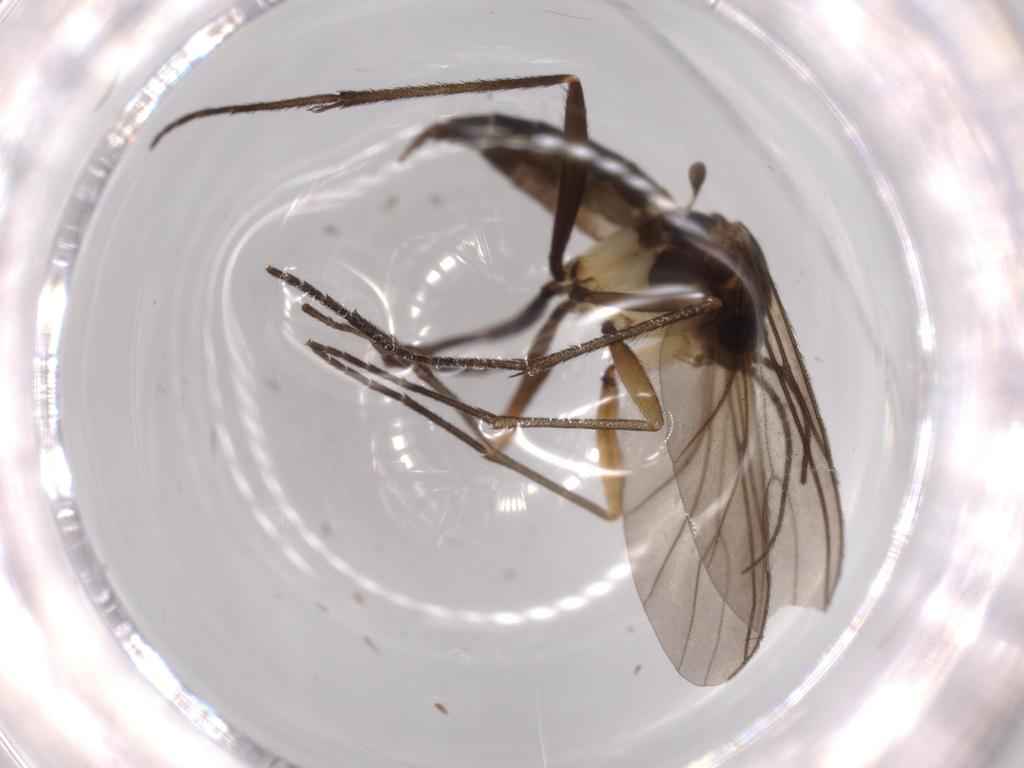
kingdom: Animalia
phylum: Arthropoda
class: Insecta
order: Diptera
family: Sciaridae
